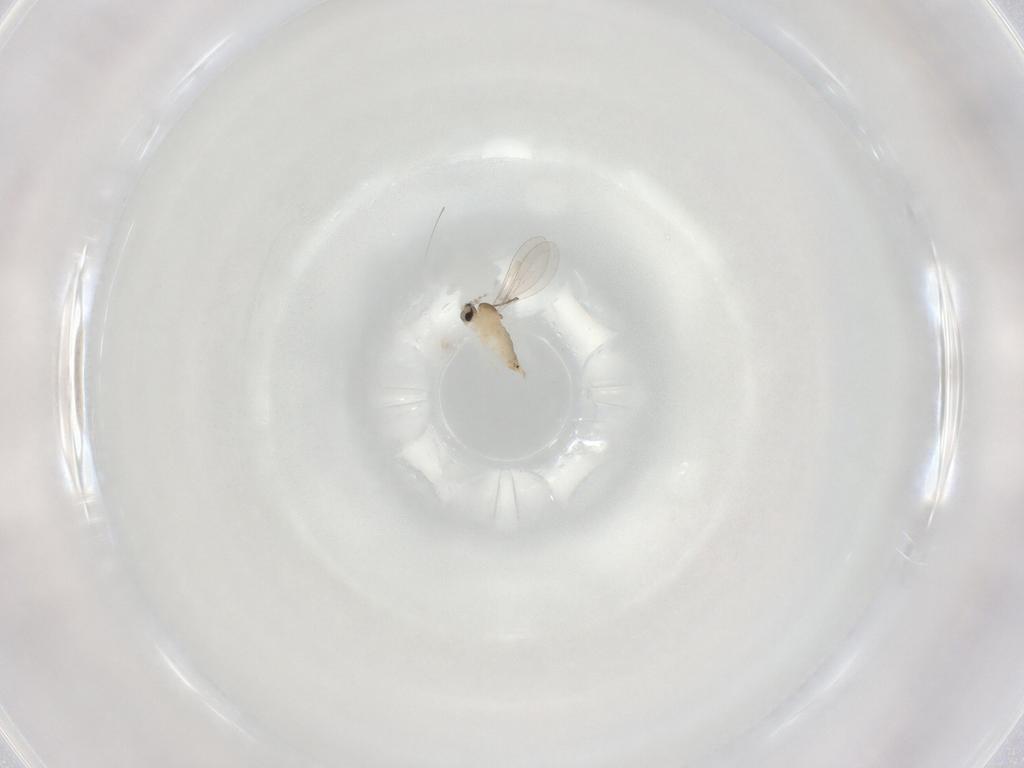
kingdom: Animalia
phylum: Arthropoda
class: Insecta
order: Diptera
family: Cecidomyiidae
